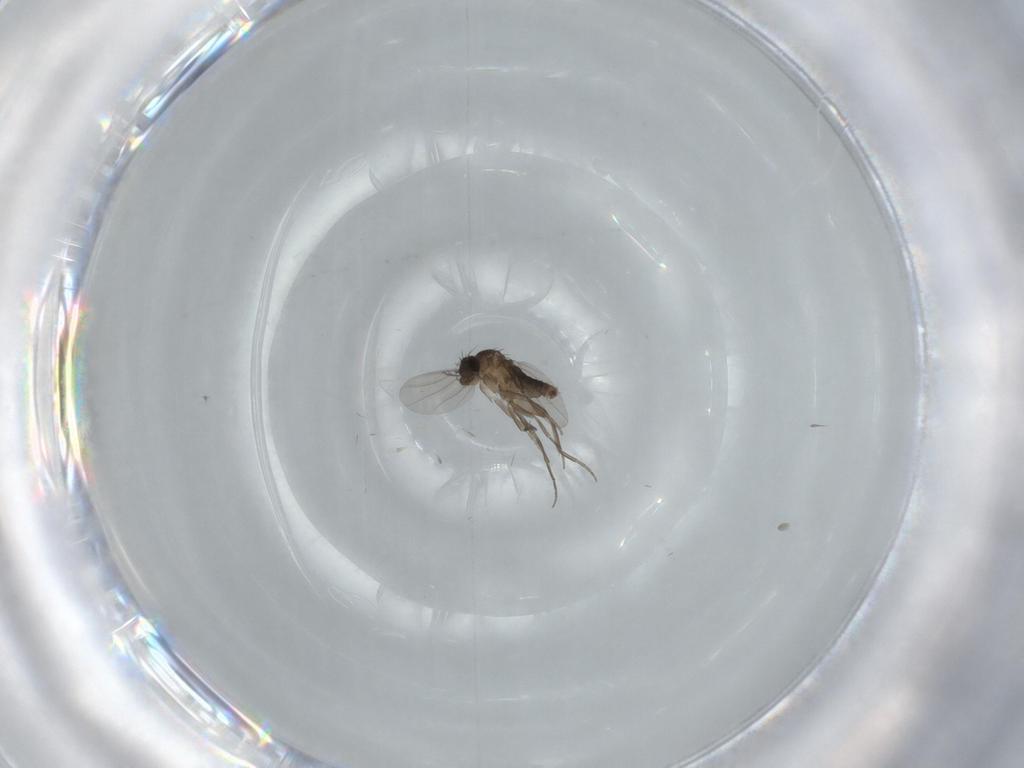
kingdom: Animalia
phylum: Arthropoda
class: Insecta
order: Diptera
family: Phoridae
